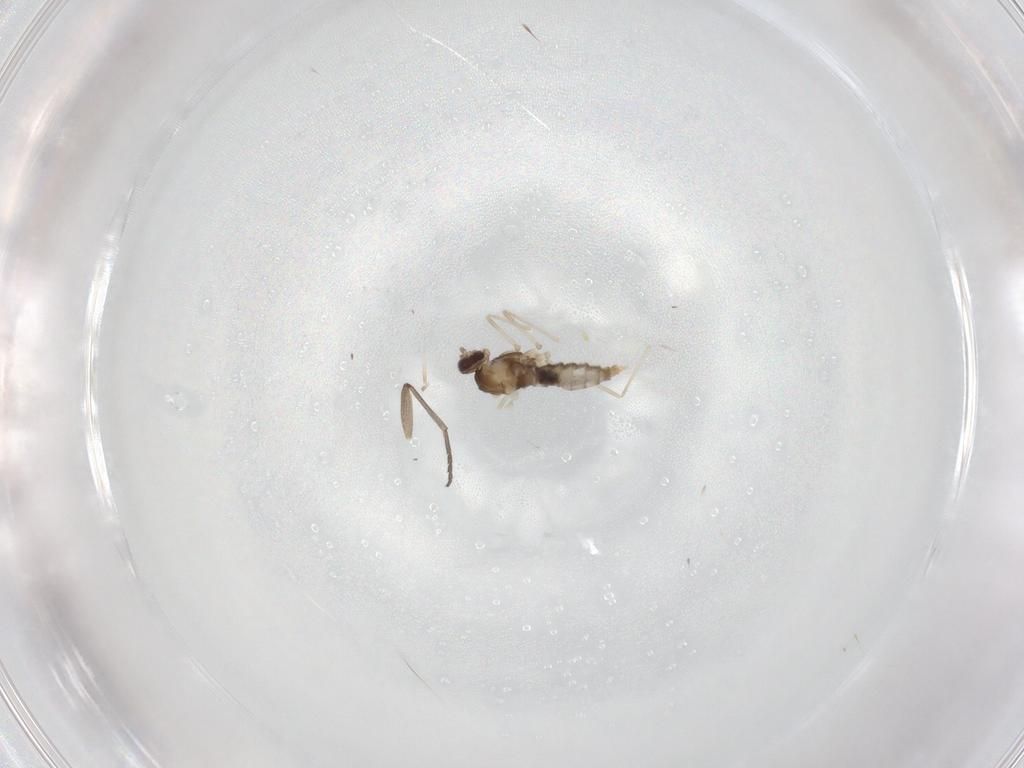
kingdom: Animalia
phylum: Arthropoda
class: Insecta
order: Diptera
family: Cecidomyiidae
